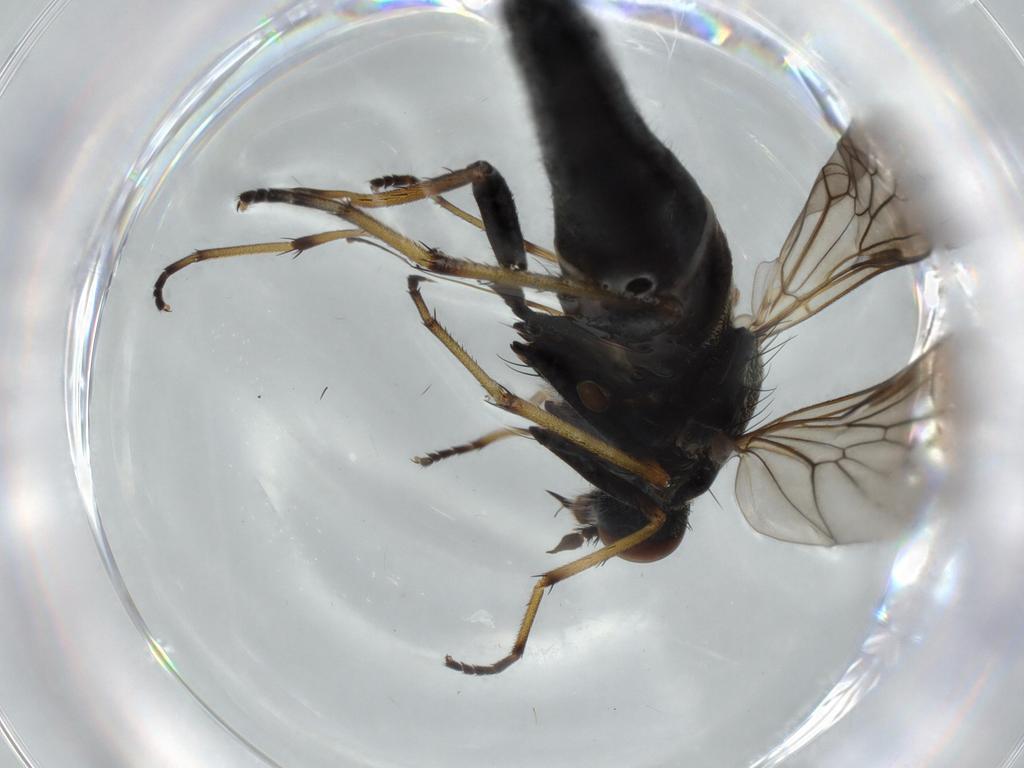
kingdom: Animalia
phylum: Arthropoda
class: Insecta
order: Diptera
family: Therevidae
